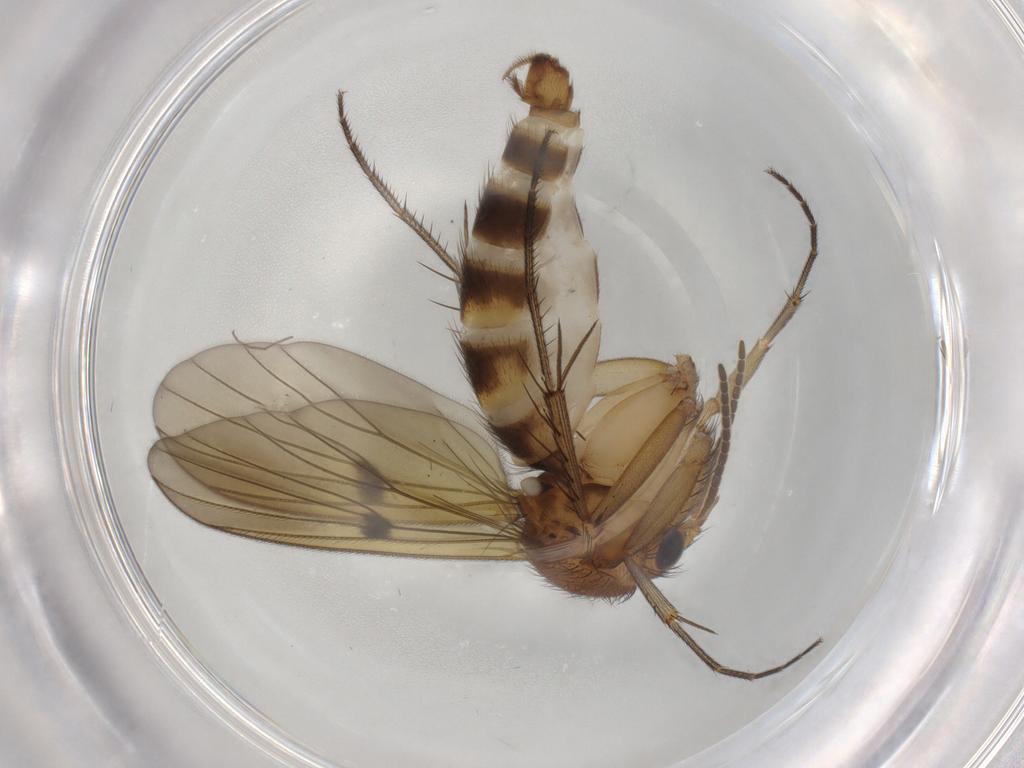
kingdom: Animalia
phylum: Arthropoda
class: Insecta
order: Diptera
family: Mycetophilidae
